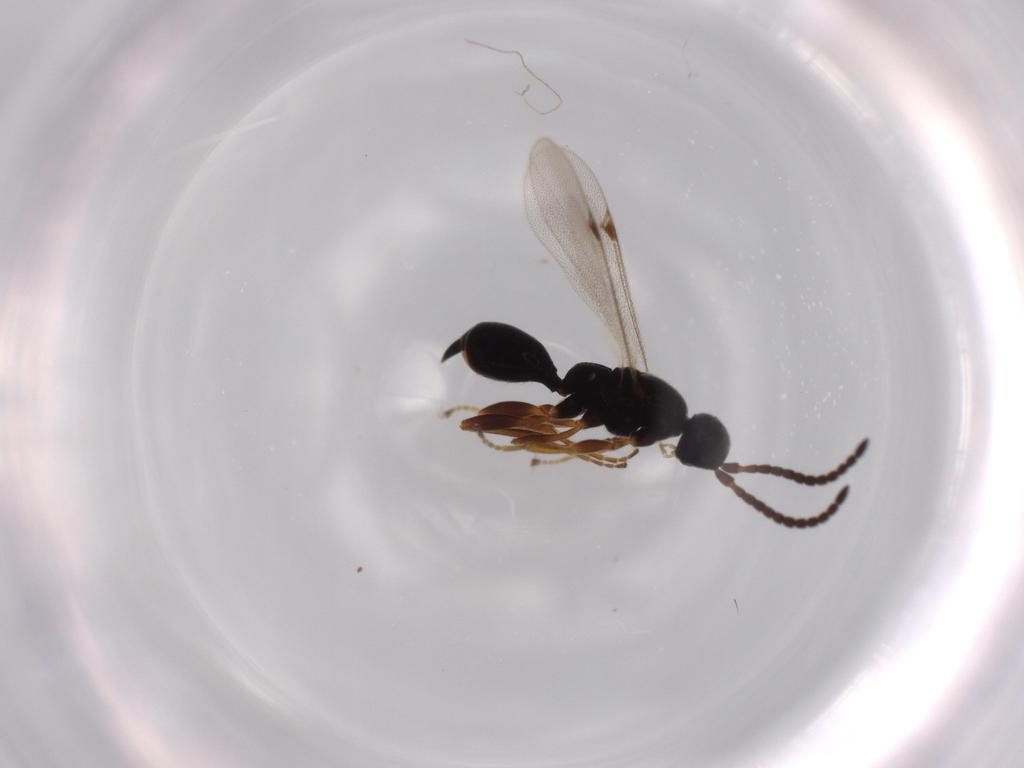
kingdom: Animalia
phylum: Arthropoda
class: Insecta
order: Hymenoptera
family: Proctotrupidae
